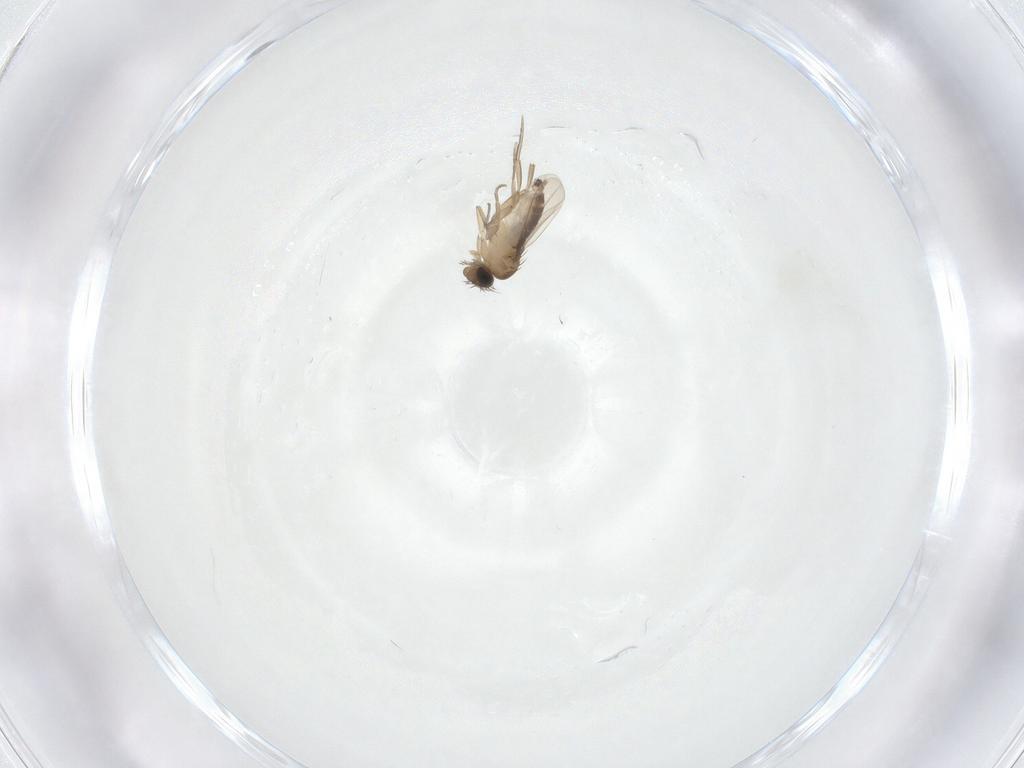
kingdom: Animalia
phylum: Arthropoda
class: Insecta
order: Diptera
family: Phoridae
